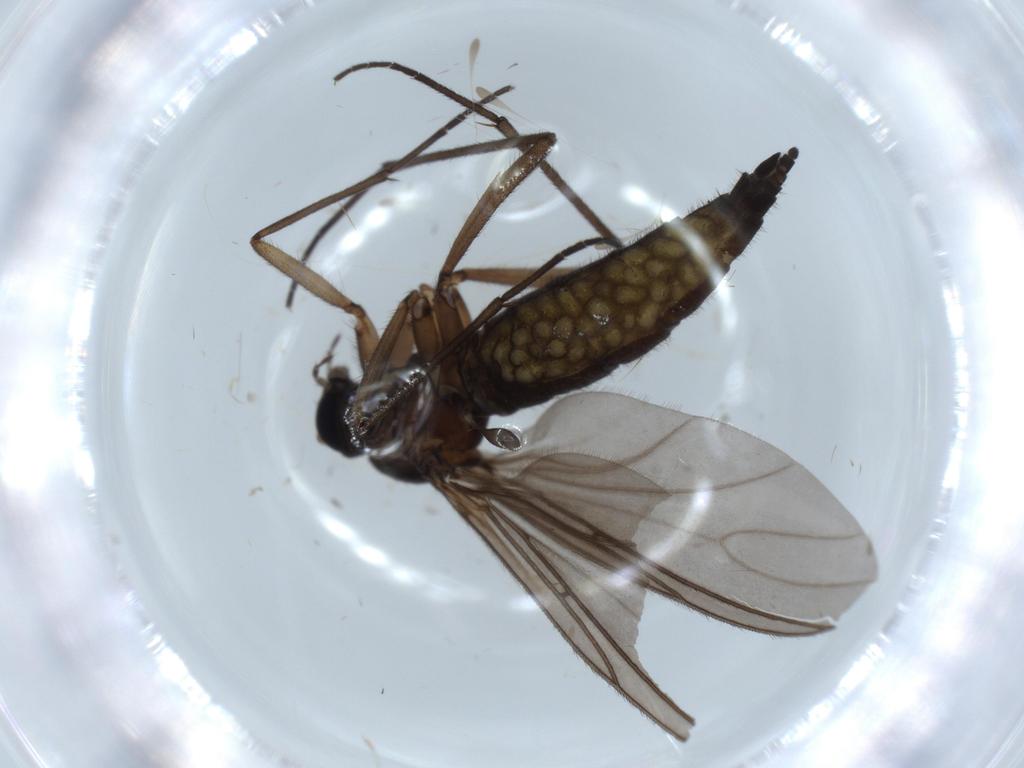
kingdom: Animalia
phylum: Arthropoda
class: Insecta
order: Diptera
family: Sciaridae
